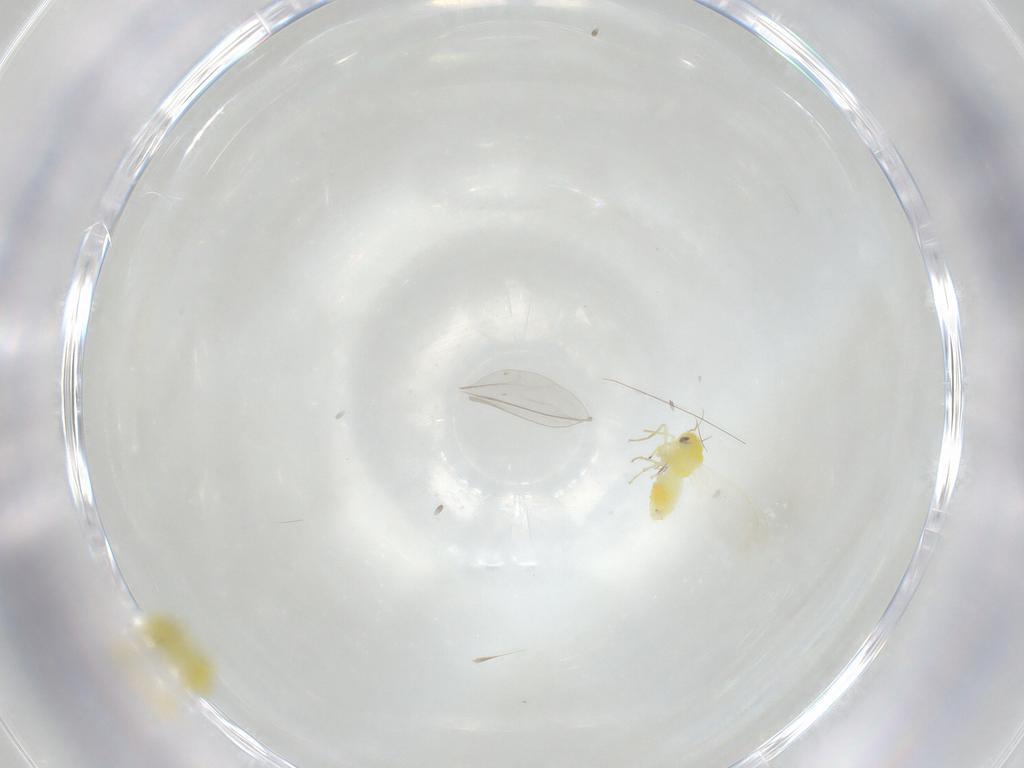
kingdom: Animalia
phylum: Arthropoda
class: Insecta
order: Hemiptera
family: Aleyrodidae
